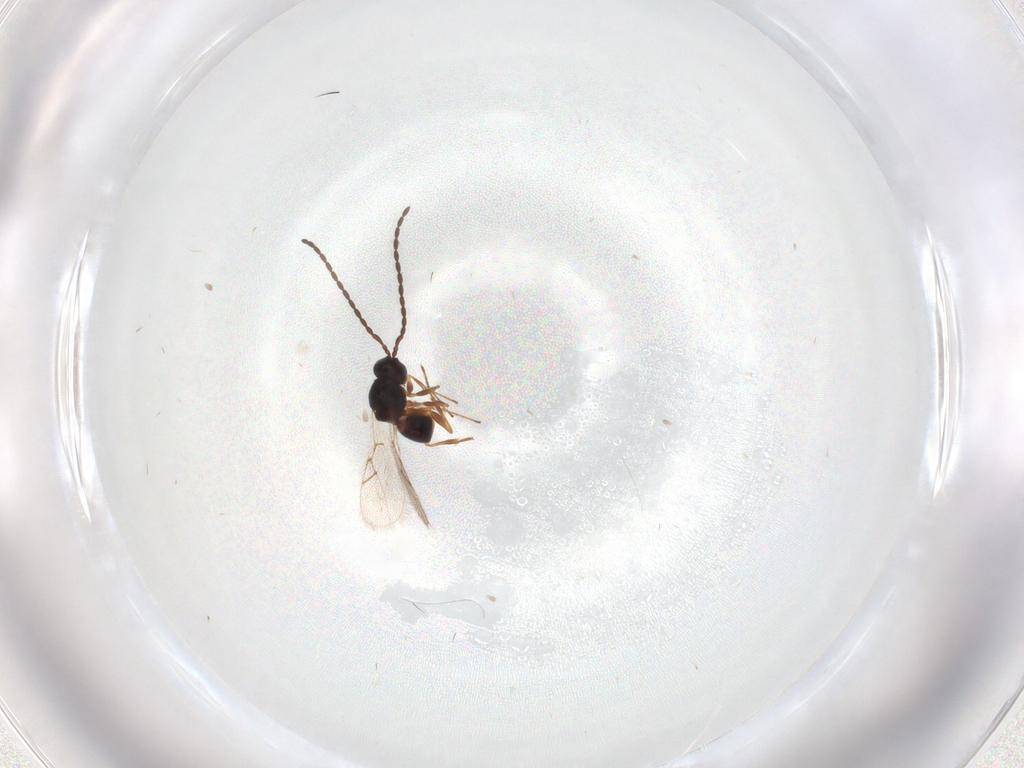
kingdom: Animalia
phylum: Arthropoda
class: Insecta
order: Hymenoptera
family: Figitidae
